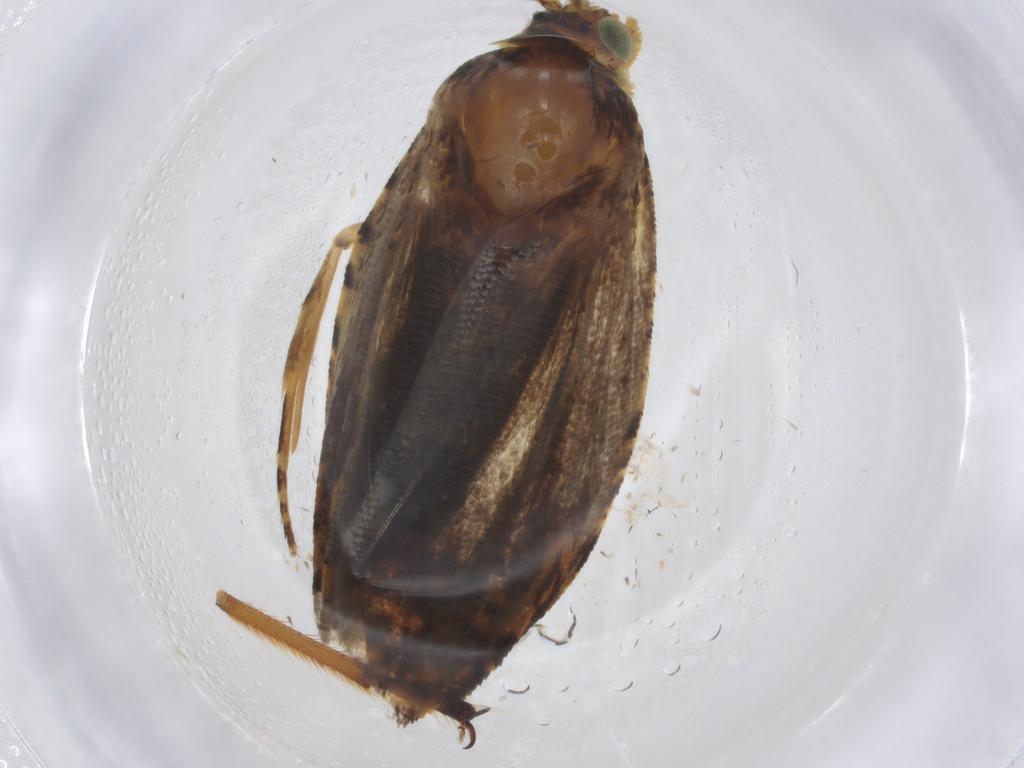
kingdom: Animalia
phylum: Arthropoda
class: Insecta
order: Lepidoptera
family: Tortricidae
